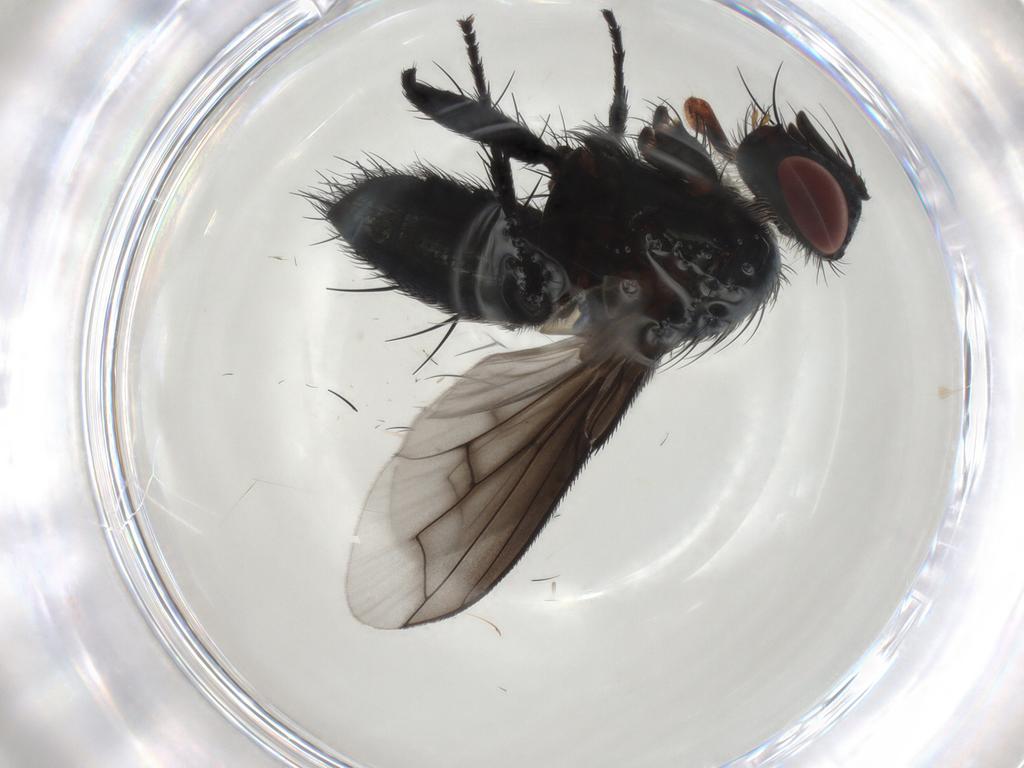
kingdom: Animalia
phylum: Arthropoda
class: Insecta
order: Diptera
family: Tachinidae
